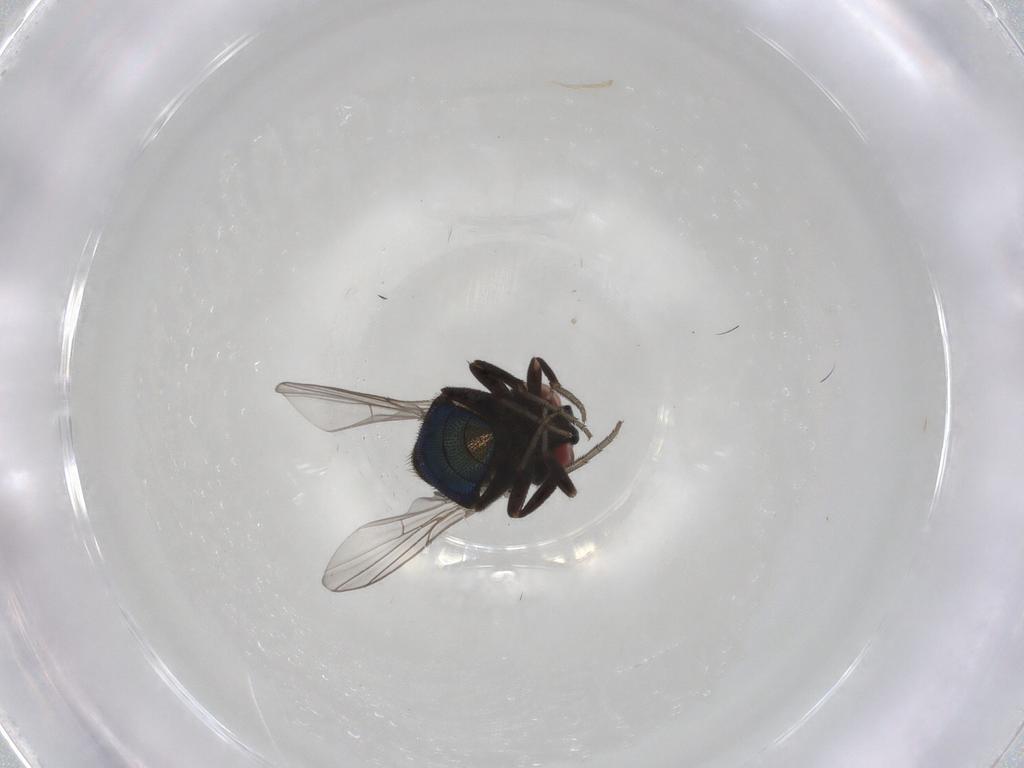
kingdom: Animalia
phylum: Arthropoda
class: Insecta
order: Diptera
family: Cryptochetidae
